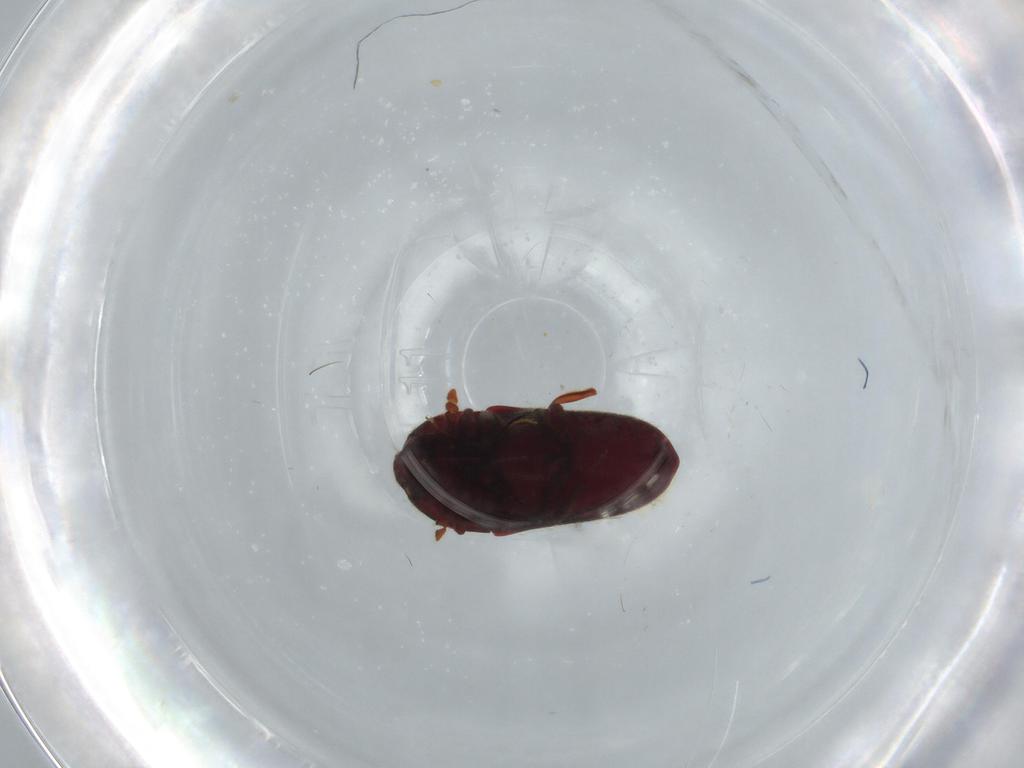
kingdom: Animalia
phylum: Arthropoda
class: Insecta
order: Coleoptera
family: Throscidae
